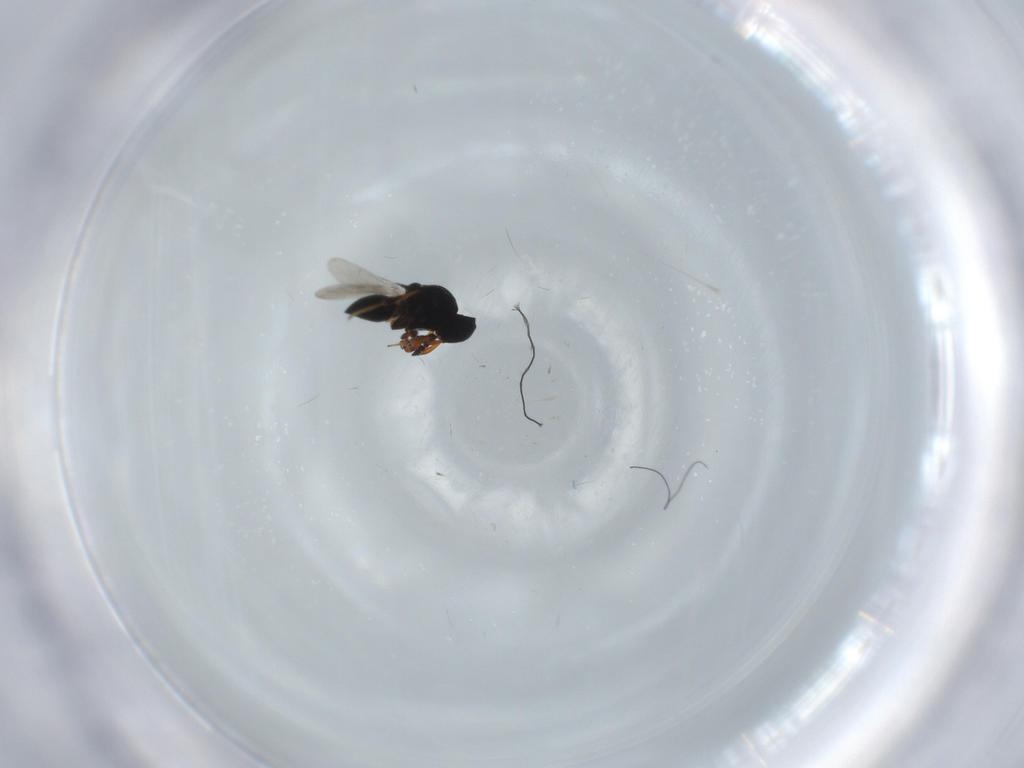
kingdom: Animalia
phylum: Arthropoda
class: Insecta
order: Hymenoptera
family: Platygastridae
